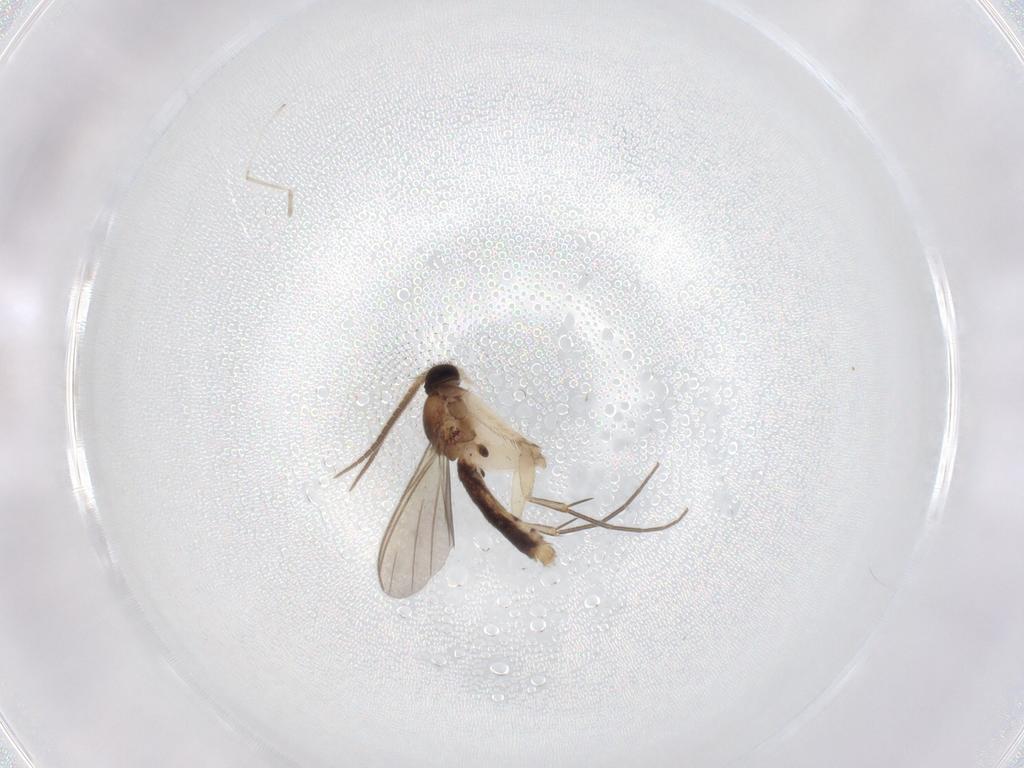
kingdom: Animalia
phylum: Arthropoda
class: Insecta
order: Diptera
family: Mycetophilidae
